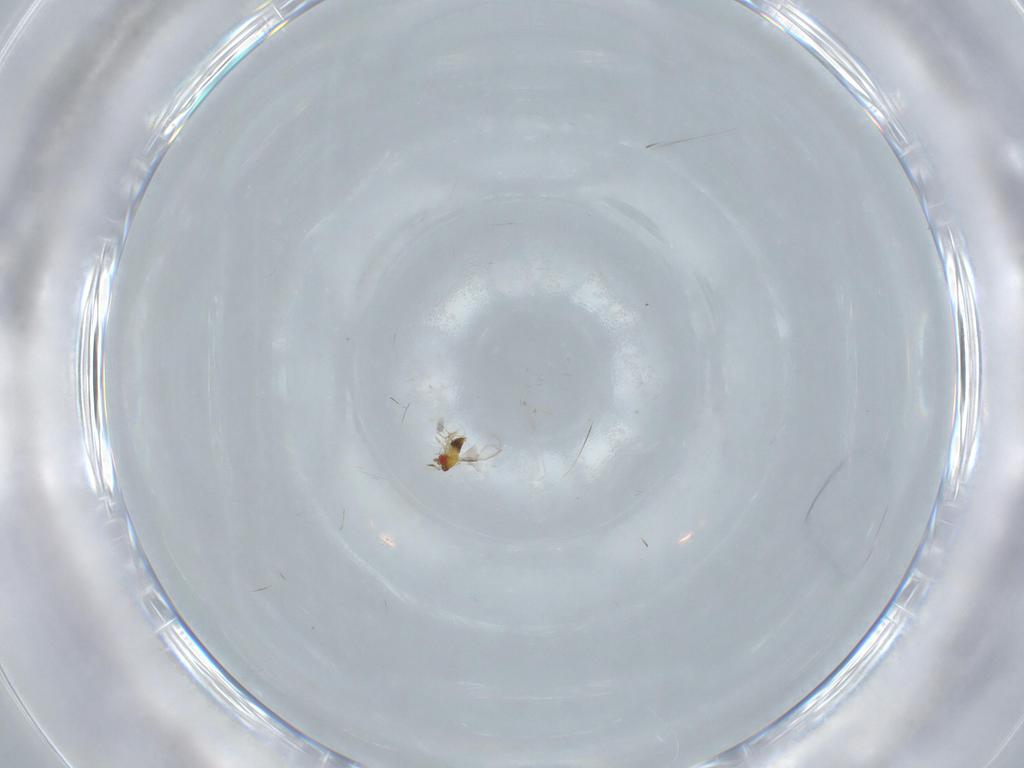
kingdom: Animalia
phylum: Arthropoda
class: Insecta
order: Hymenoptera
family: Trichogrammatidae
